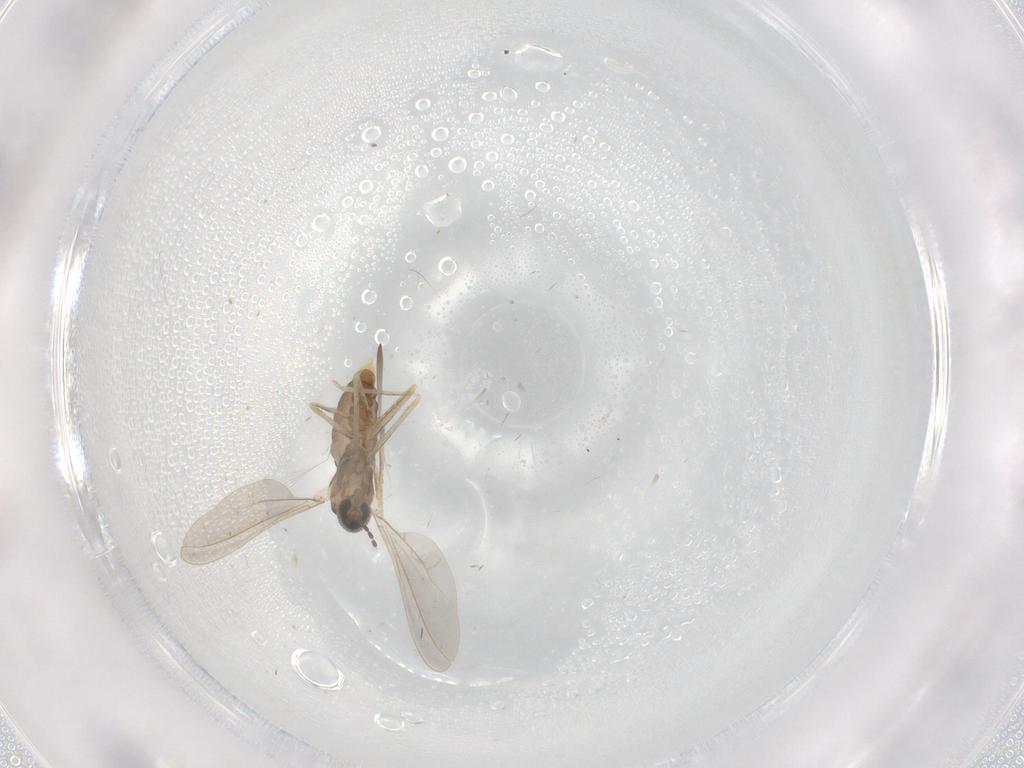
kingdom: Animalia
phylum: Arthropoda
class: Insecta
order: Diptera
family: Cecidomyiidae
